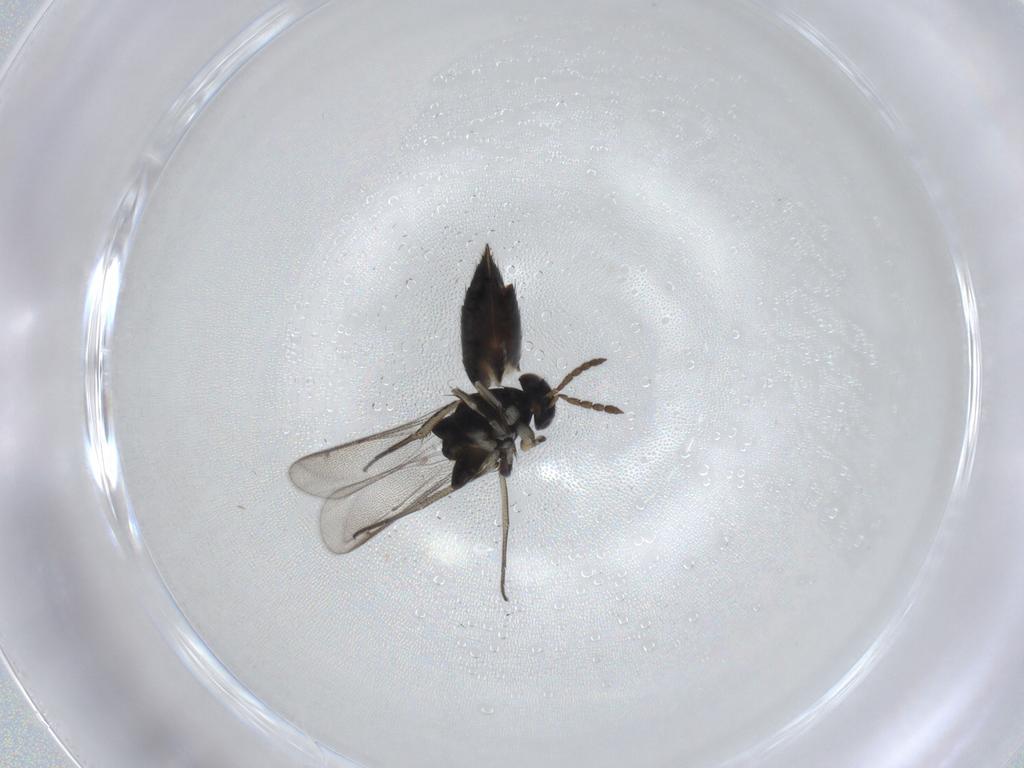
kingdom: Animalia
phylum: Arthropoda
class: Insecta
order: Hymenoptera
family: Eulophidae
